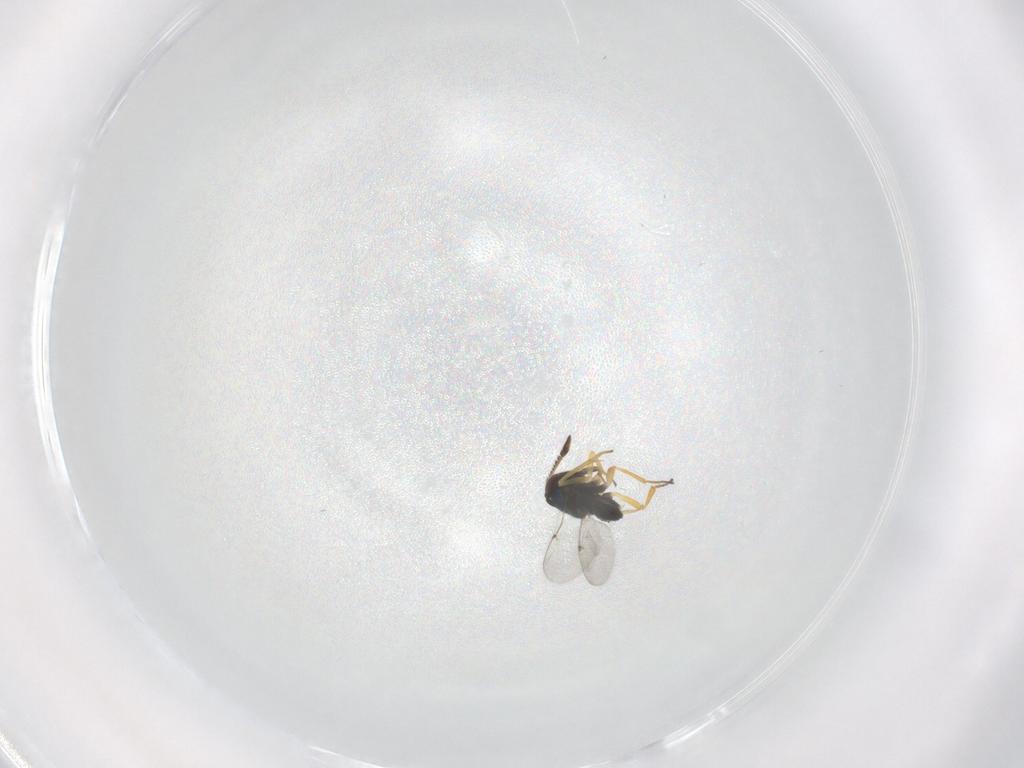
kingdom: Animalia
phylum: Arthropoda
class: Insecta
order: Hymenoptera
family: Encyrtidae
